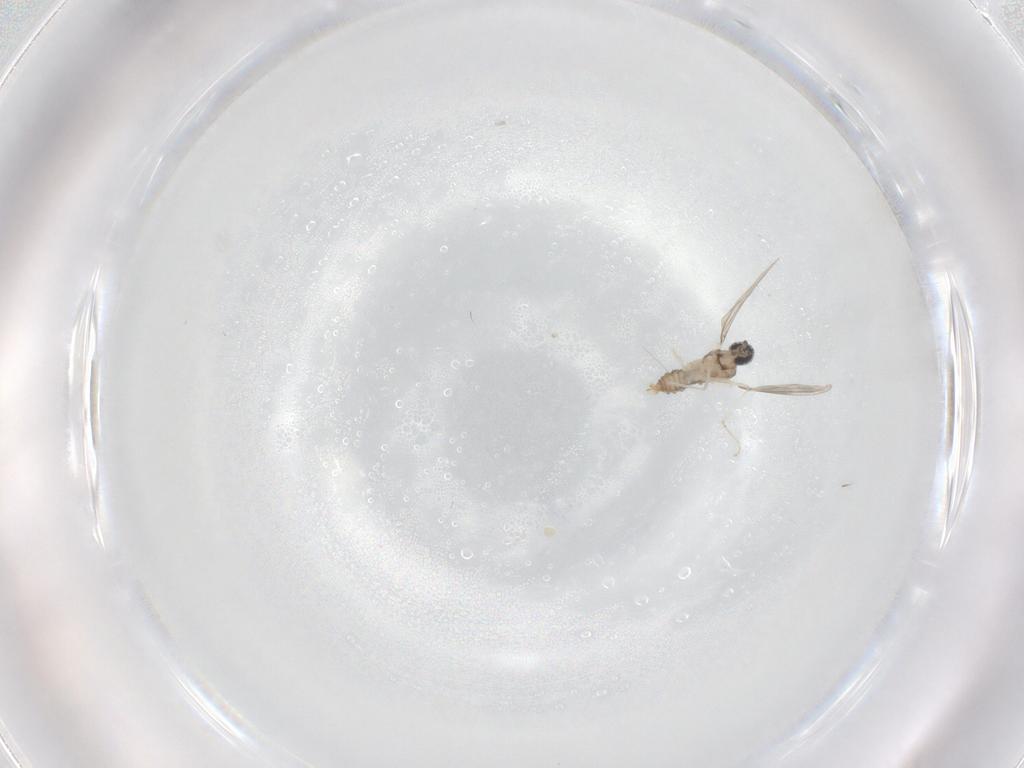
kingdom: Animalia
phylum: Arthropoda
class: Insecta
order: Diptera
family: Cecidomyiidae
